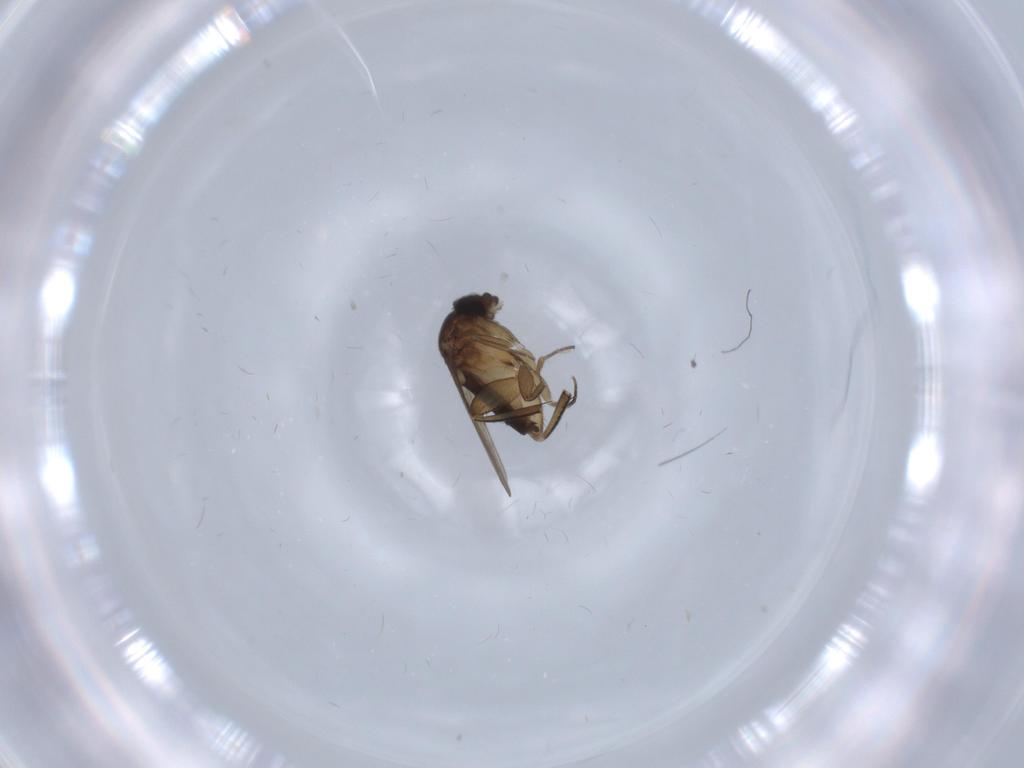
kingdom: Animalia
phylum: Arthropoda
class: Insecta
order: Diptera
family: Phoridae
